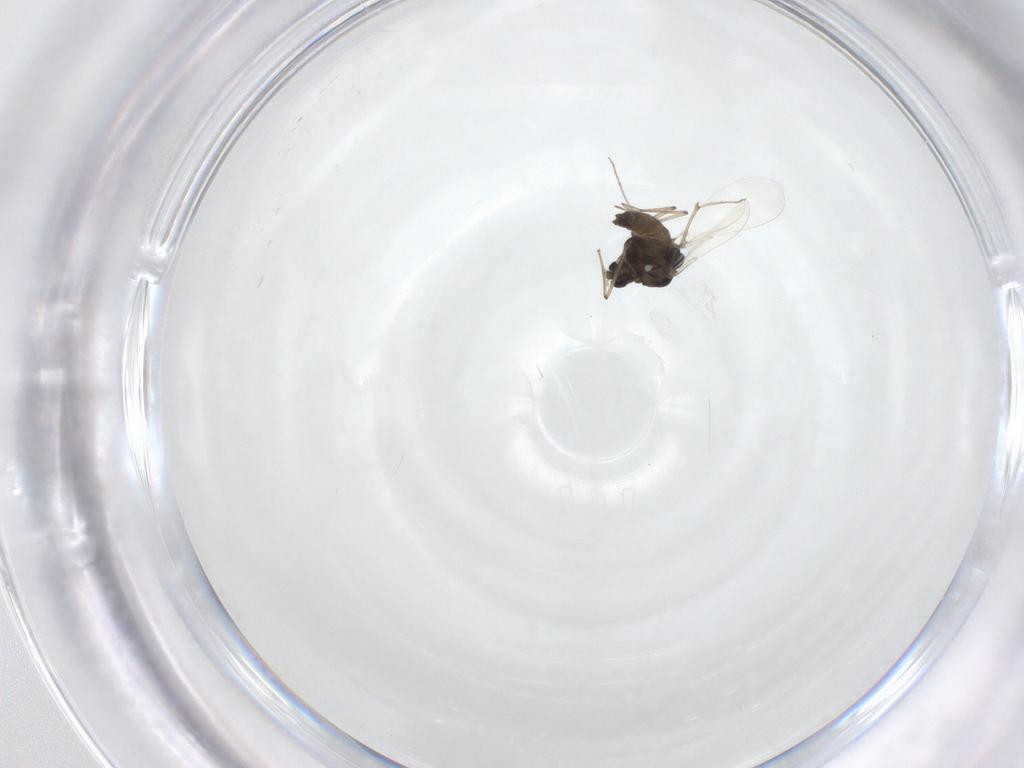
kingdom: Animalia
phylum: Arthropoda
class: Insecta
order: Diptera
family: Chironomidae
